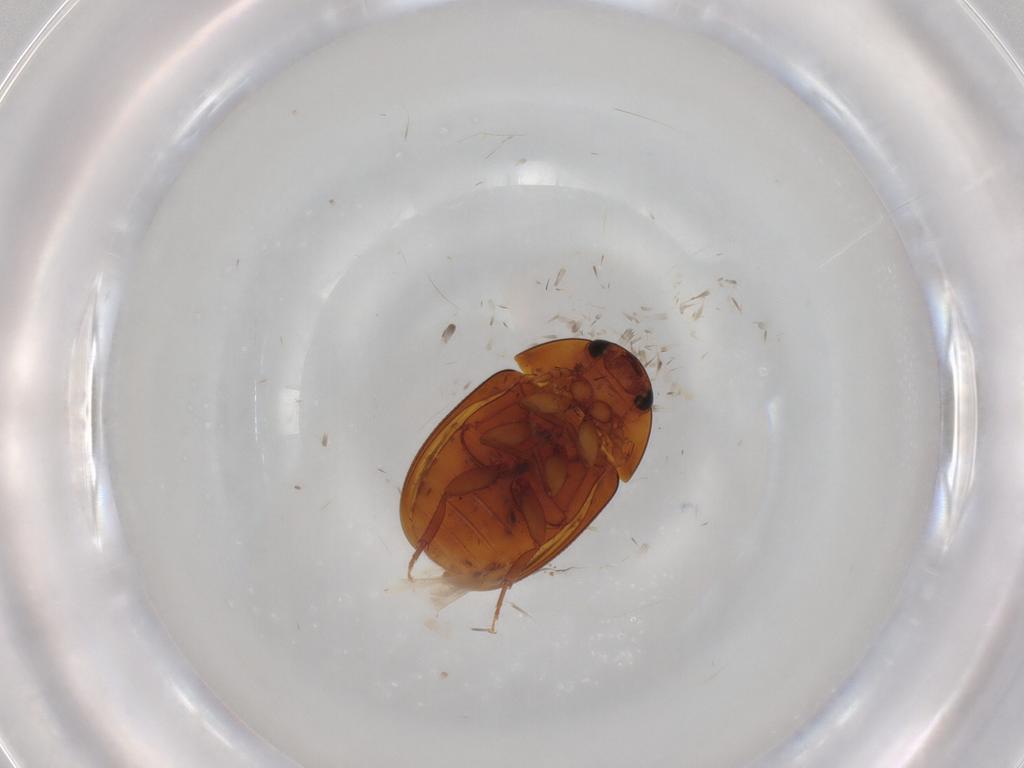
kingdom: Animalia
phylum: Arthropoda
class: Insecta
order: Coleoptera
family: Phalacridae
